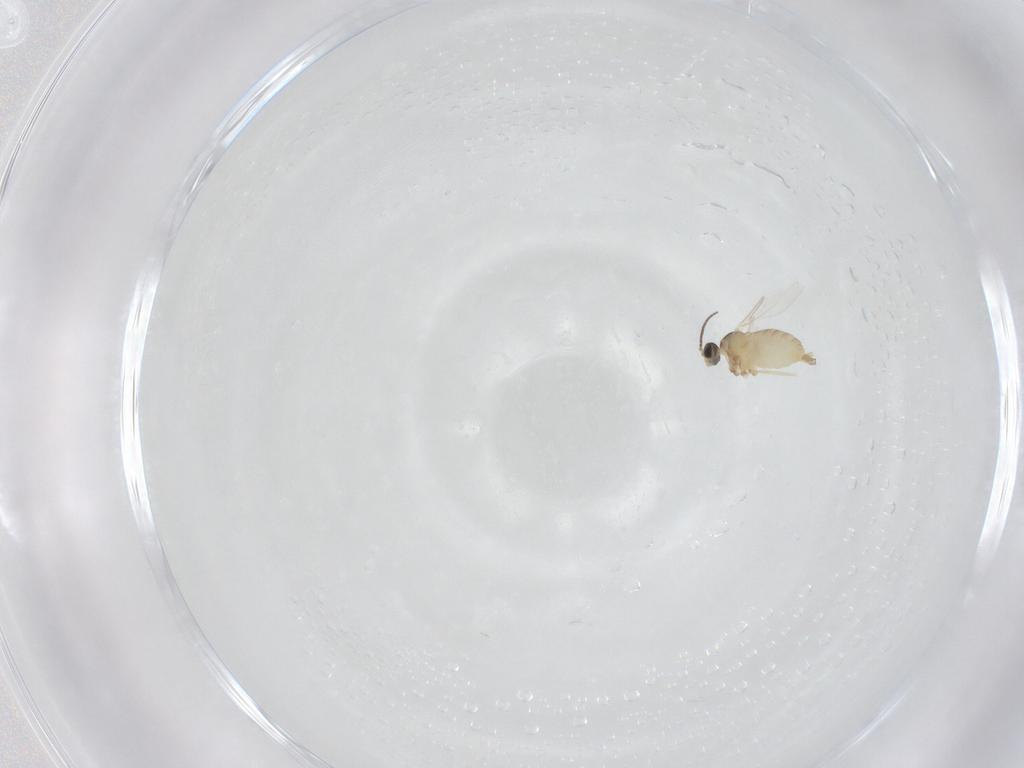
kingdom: Animalia
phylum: Arthropoda
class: Insecta
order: Diptera
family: Cecidomyiidae
